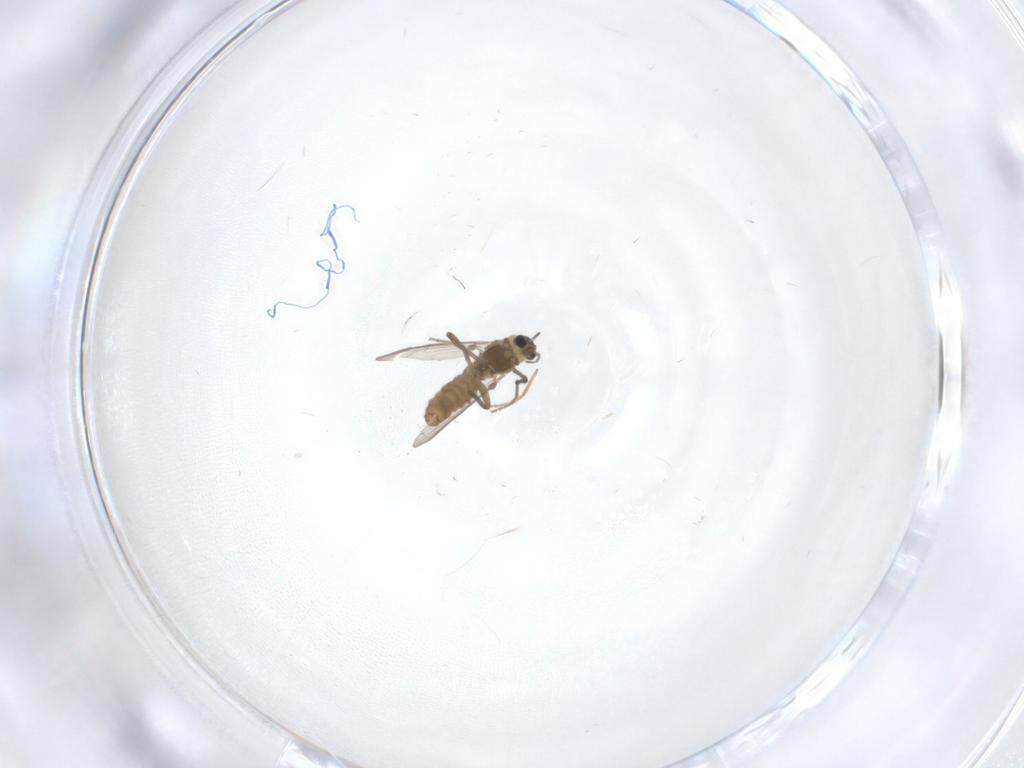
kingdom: Animalia
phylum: Arthropoda
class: Insecta
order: Diptera
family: Chironomidae
